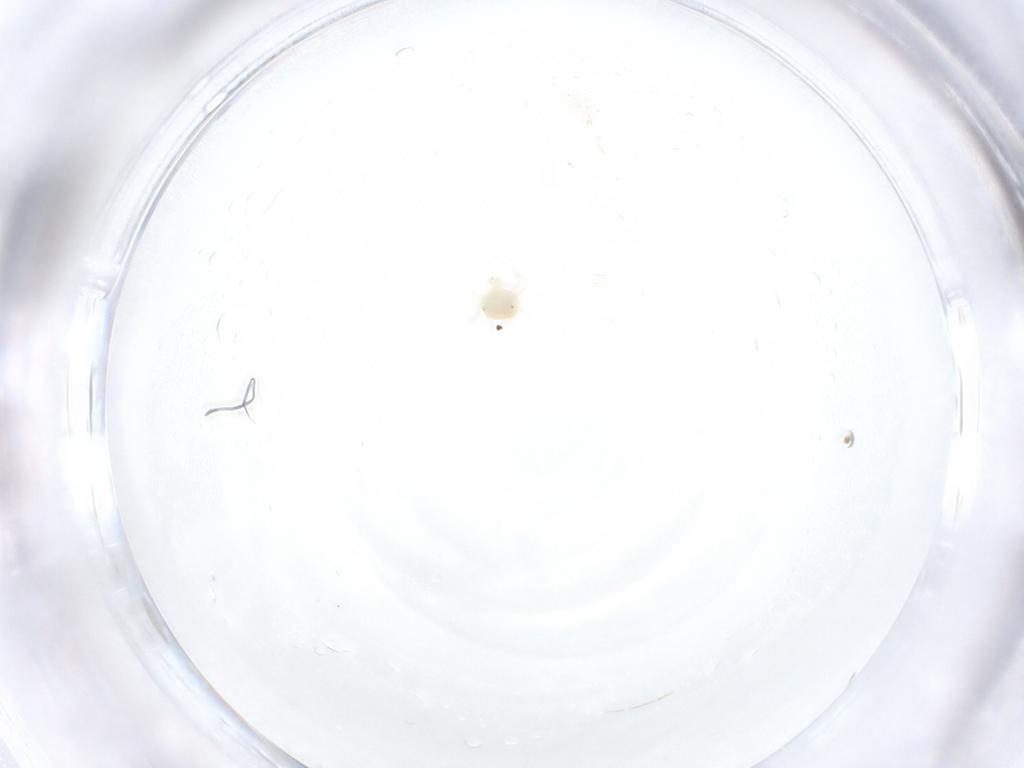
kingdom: Animalia
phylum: Arthropoda
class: Arachnida
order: Trombidiformes
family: Anystidae
